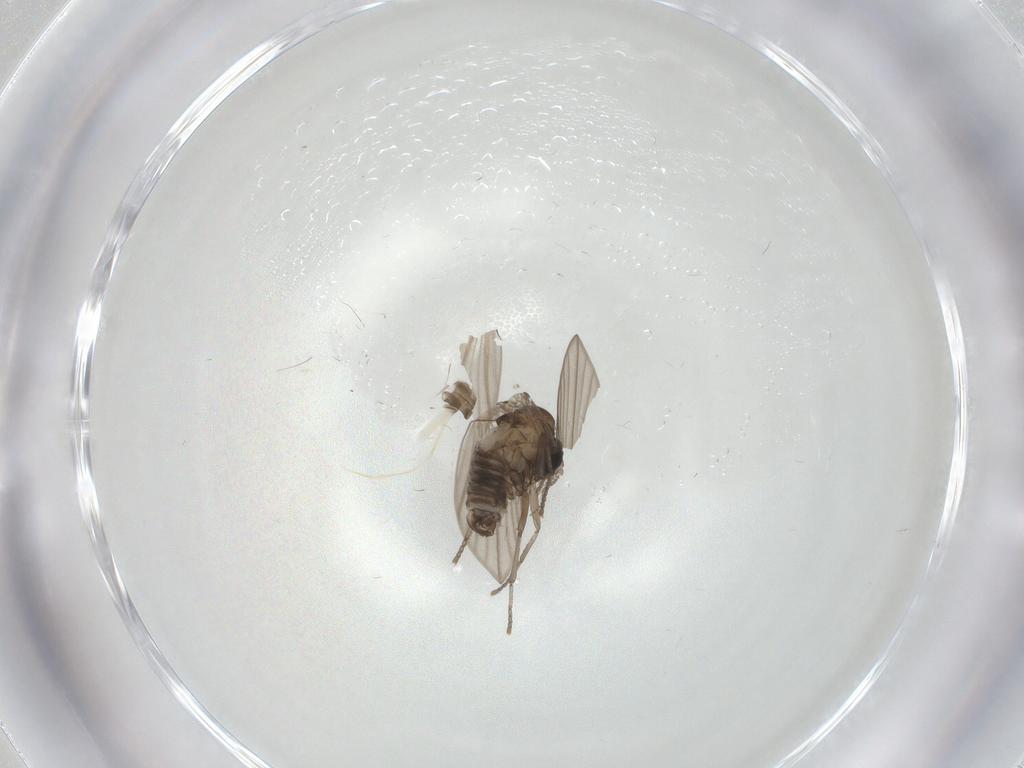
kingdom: Animalia
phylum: Arthropoda
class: Insecta
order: Diptera
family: Psychodidae
